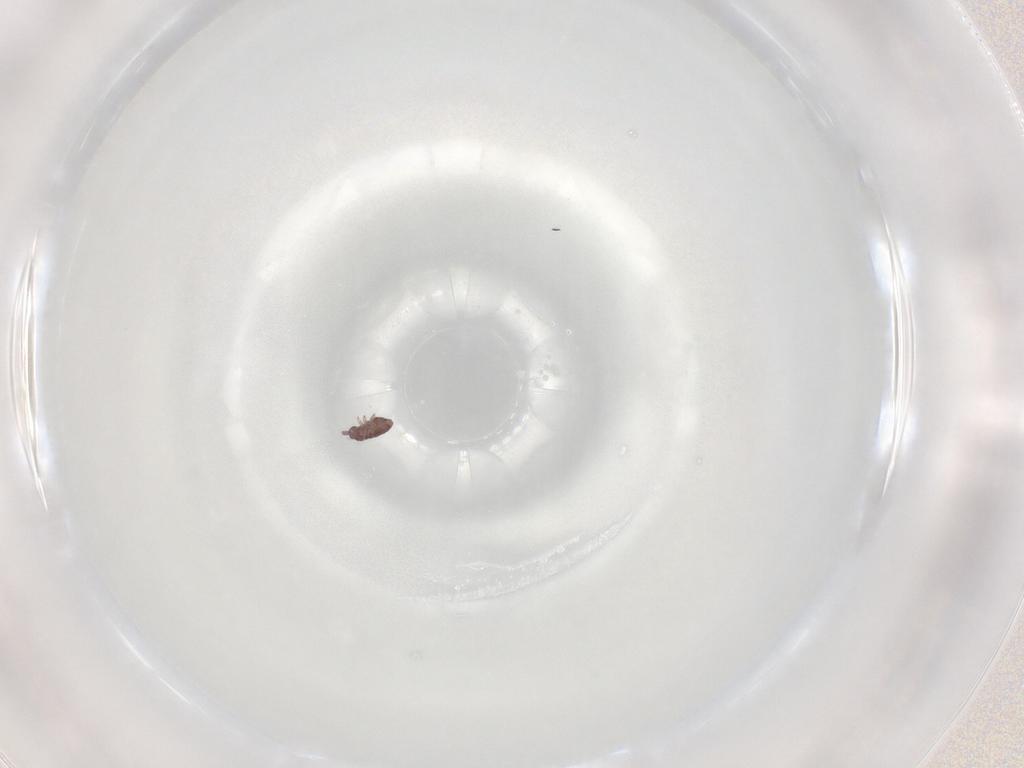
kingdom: Animalia
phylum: Arthropoda
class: Collembola
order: Poduromorpha
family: Hypogastruridae
